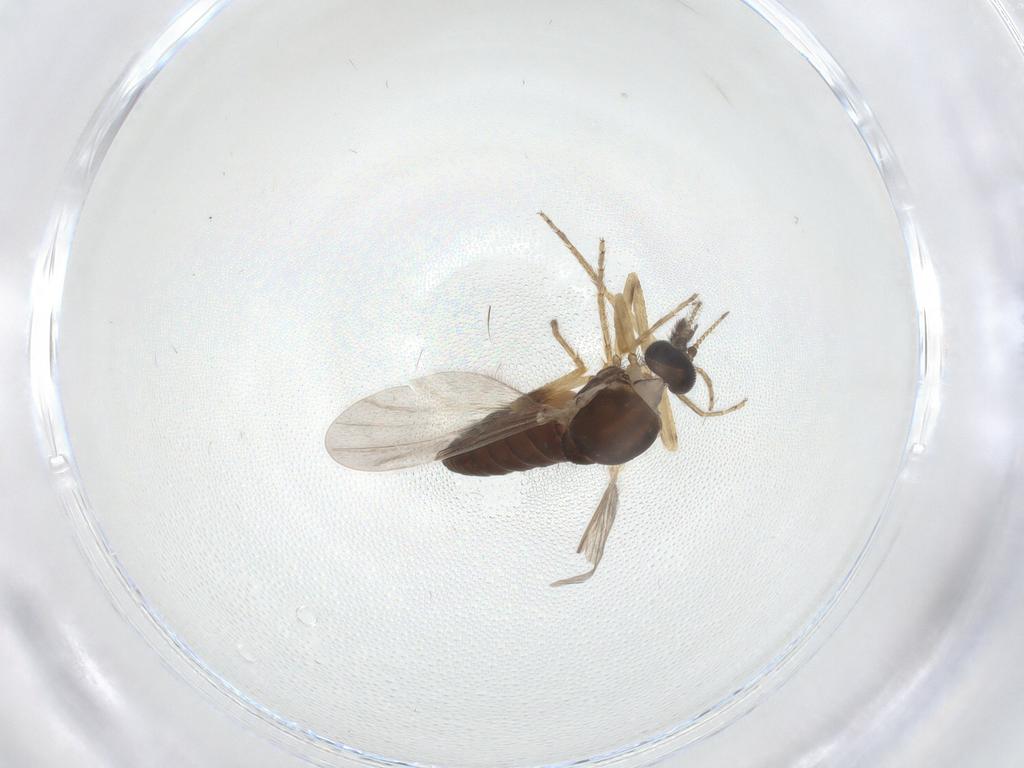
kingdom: Animalia
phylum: Arthropoda
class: Insecta
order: Diptera
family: Ceratopogonidae
